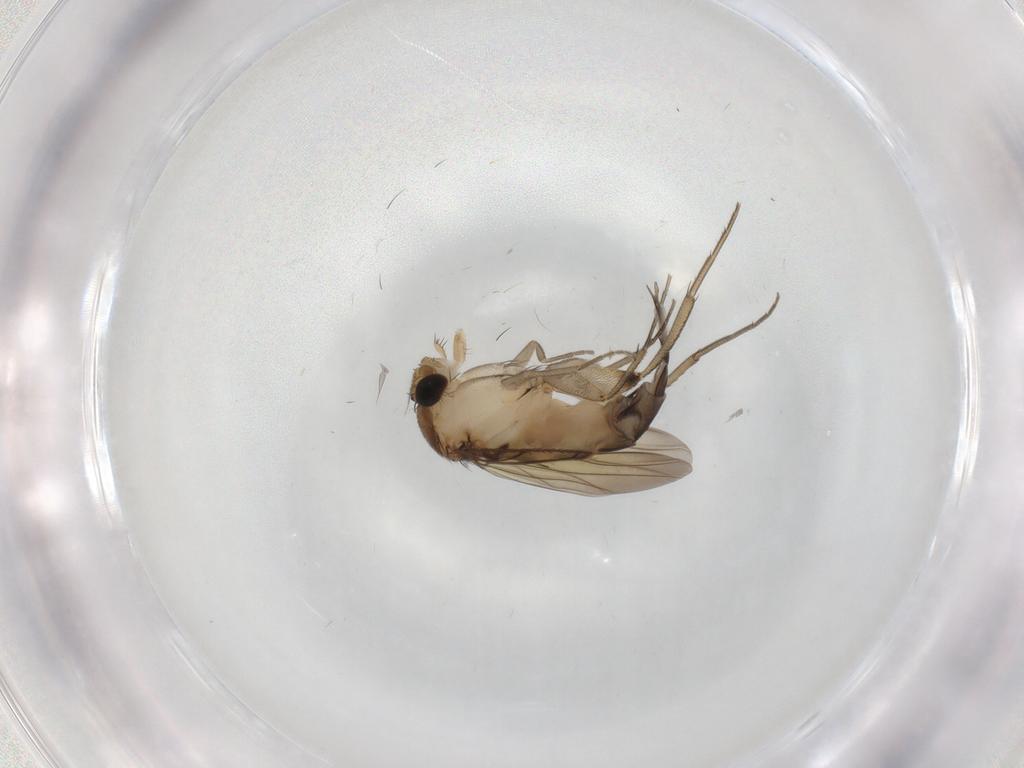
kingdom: Animalia
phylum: Arthropoda
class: Insecta
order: Diptera
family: Phoridae
